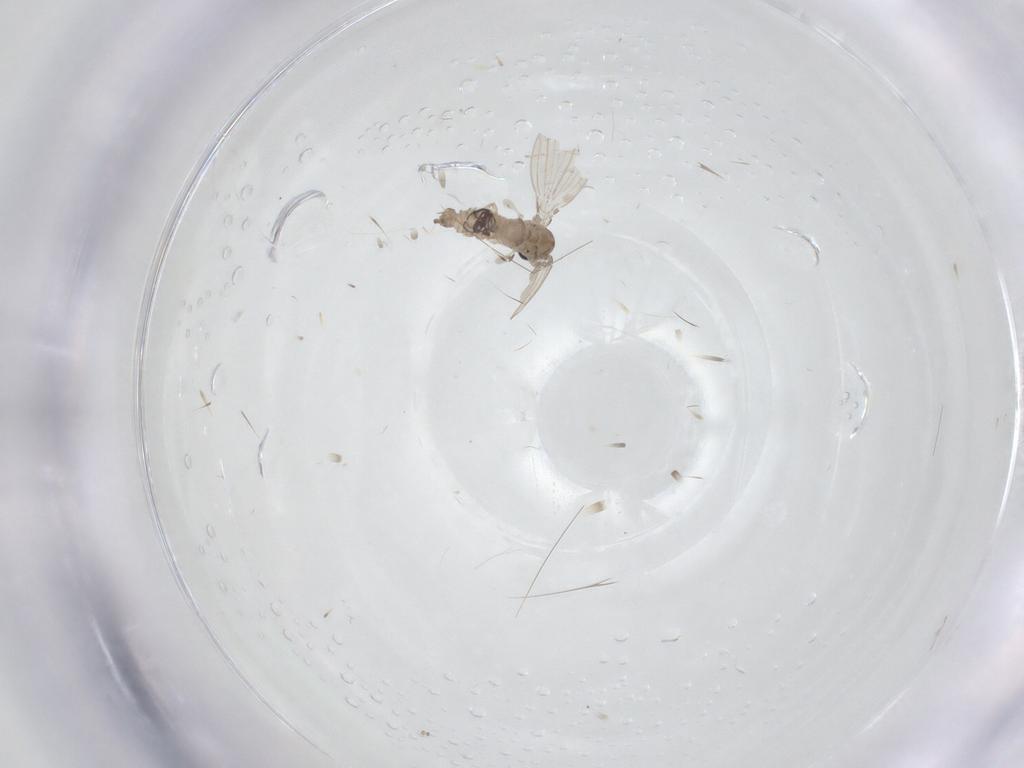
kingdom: Animalia
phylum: Arthropoda
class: Insecta
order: Diptera
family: Psychodidae
